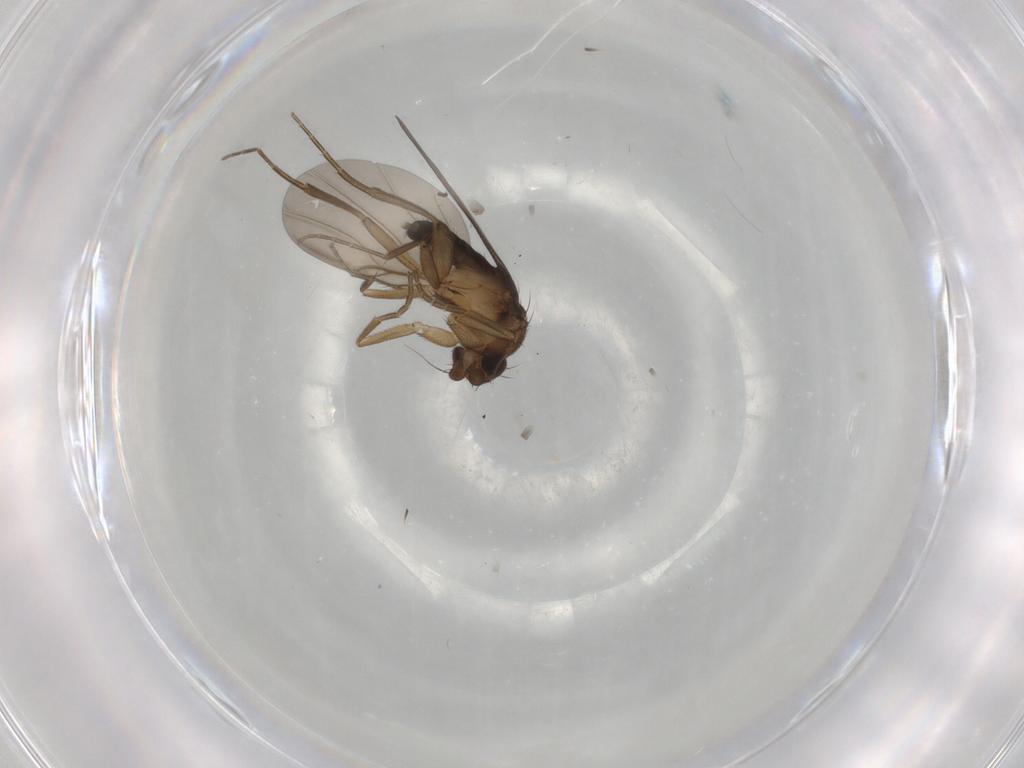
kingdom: Animalia
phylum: Arthropoda
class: Insecta
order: Diptera
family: Phoridae
